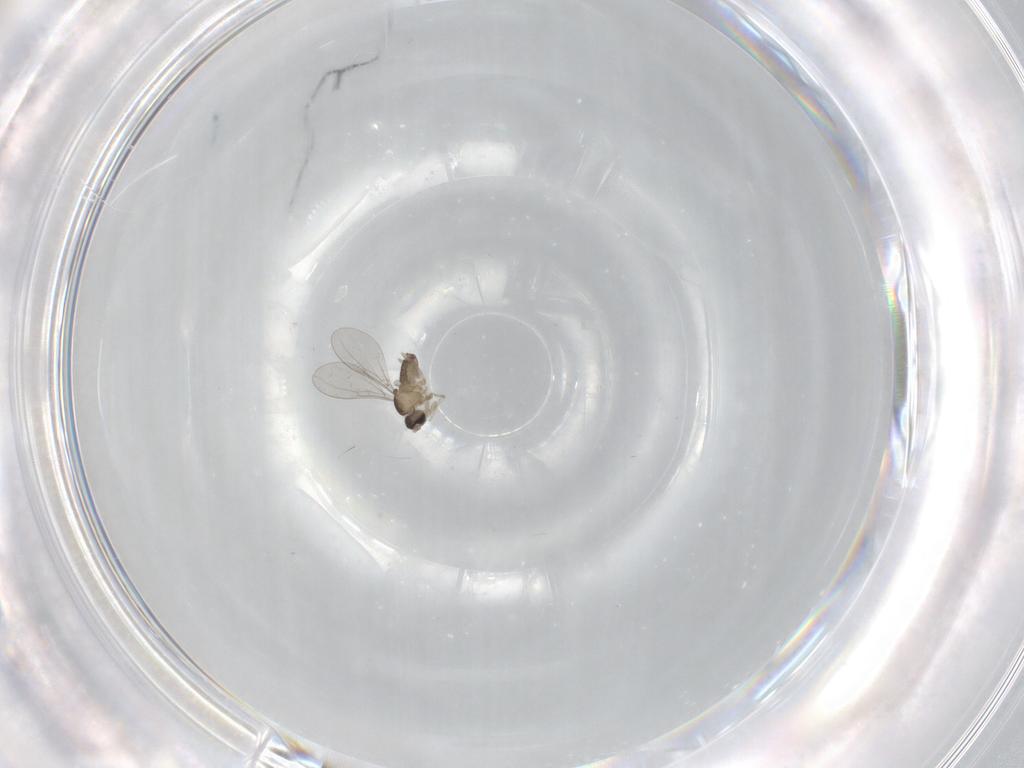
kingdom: Animalia
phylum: Arthropoda
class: Insecta
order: Diptera
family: Cecidomyiidae
